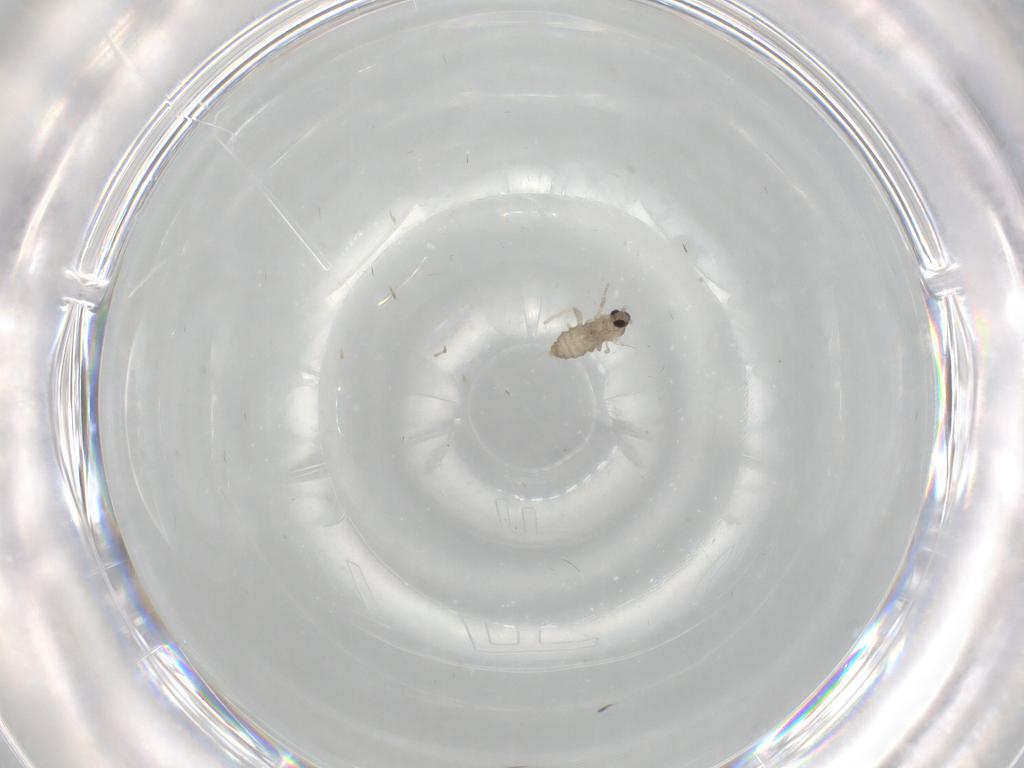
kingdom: Animalia
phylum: Arthropoda
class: Insecta
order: Diptera
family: Cecidomyiidae
